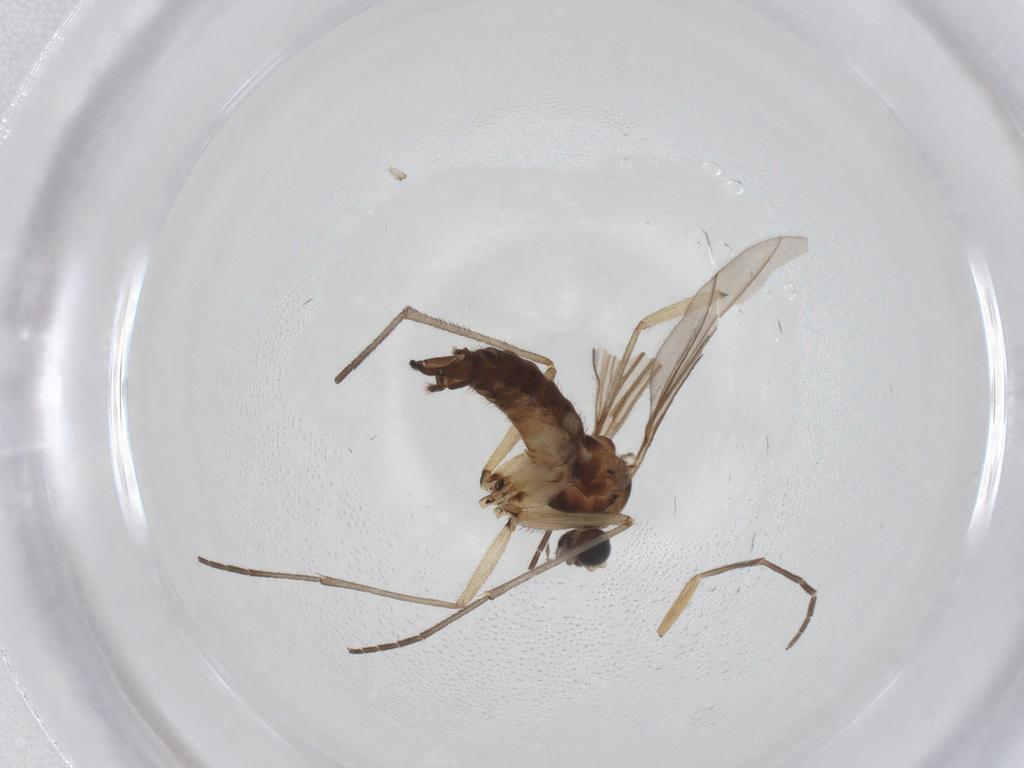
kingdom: Animalia
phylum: Arthropoda
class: Insecta
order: Diptera
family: Sciaridae
